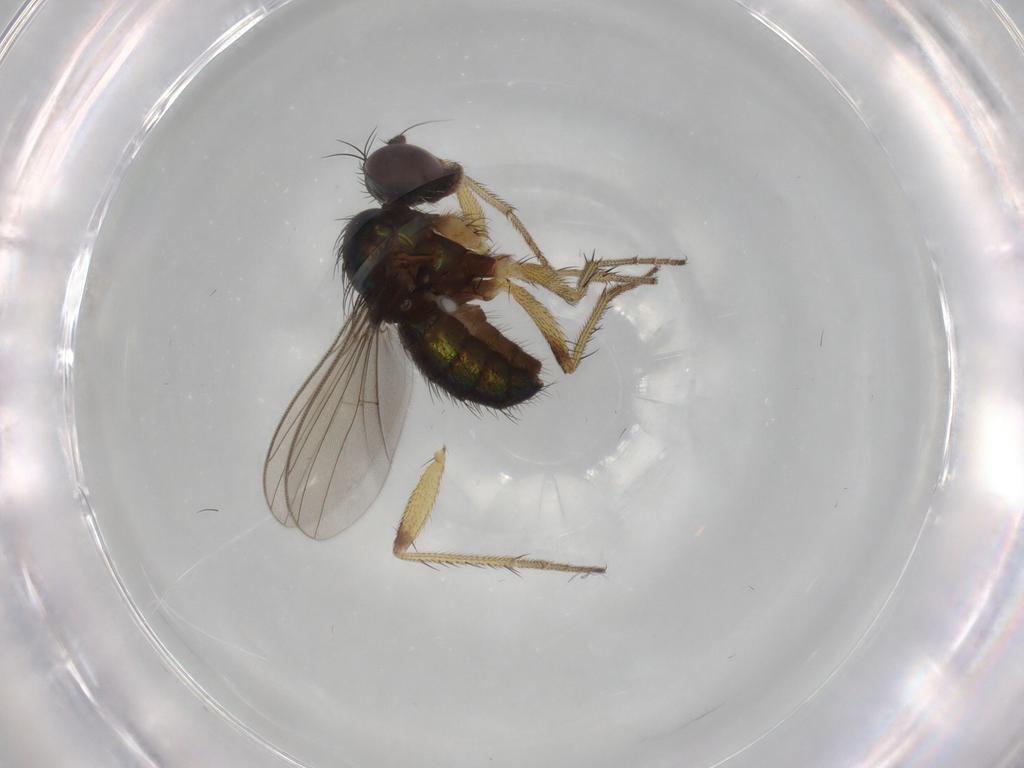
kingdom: Animalia
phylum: Arthropoda
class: Insecta
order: Diptera
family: Dolichopodidae
